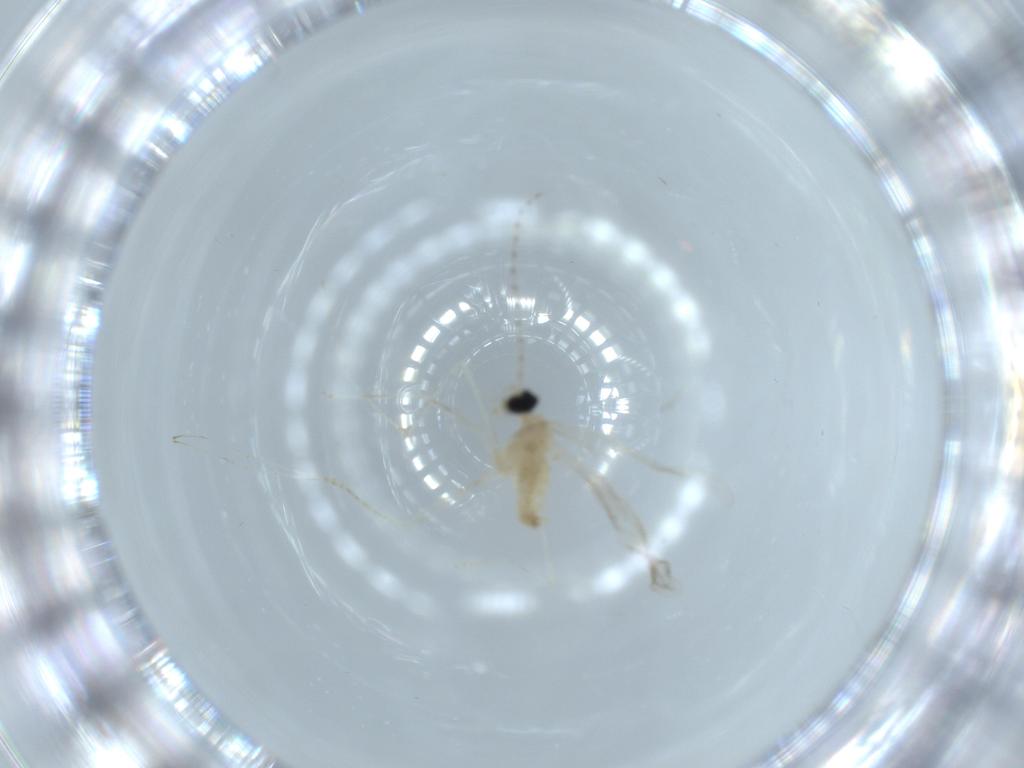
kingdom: Animalia
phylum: Arthropoda
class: Insecta
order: Diptera
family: Cecidomyiidae
